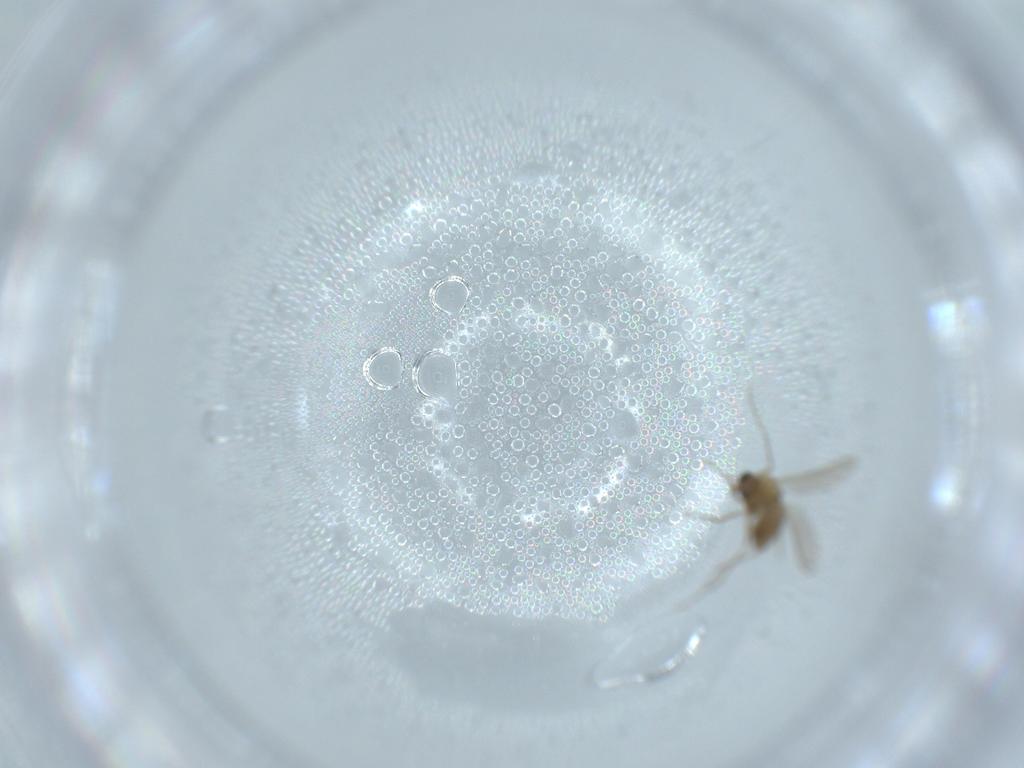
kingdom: Animalia
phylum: Arthropoda
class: Insecta
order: Diptera
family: Chironomidae
